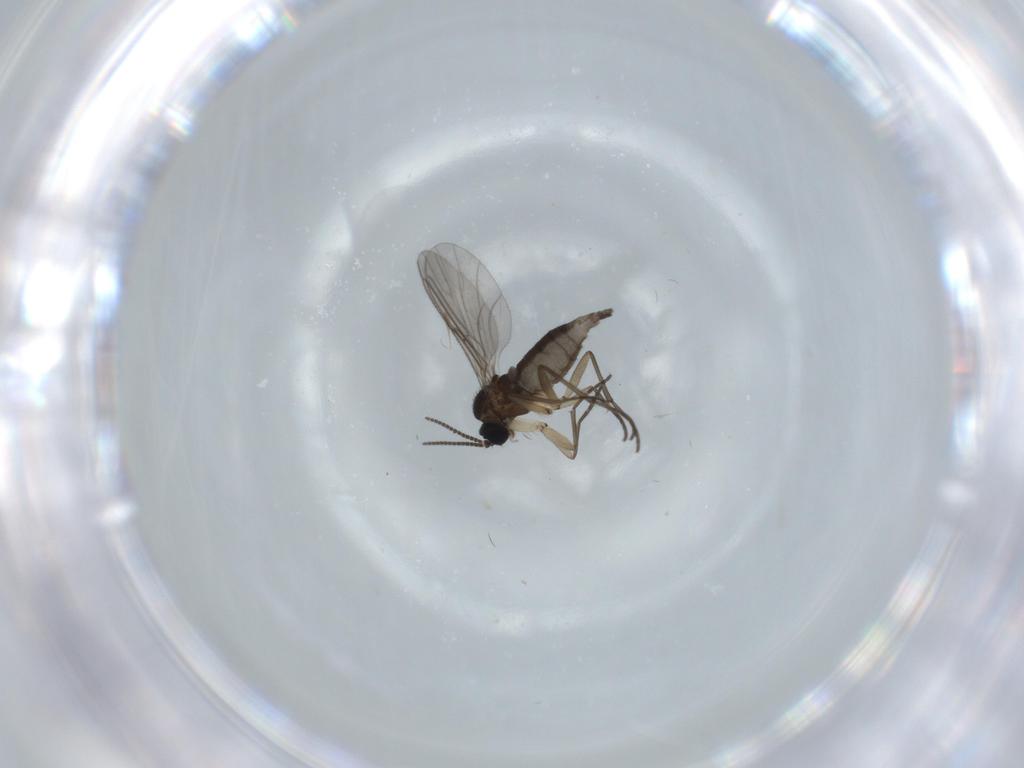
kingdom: Animalia
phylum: Arthropoda
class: Insecta
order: Diptera
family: Sciaridae
